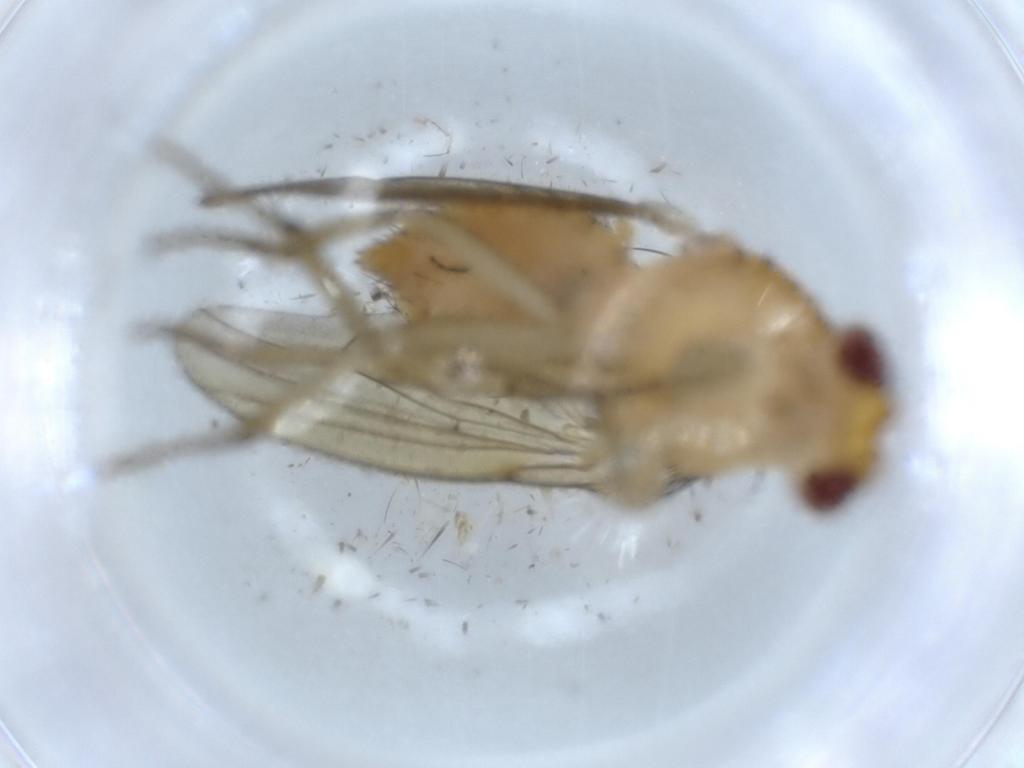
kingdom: Animalia
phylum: Arthropoda
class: Insecta
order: Diptera
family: Hybotidae
